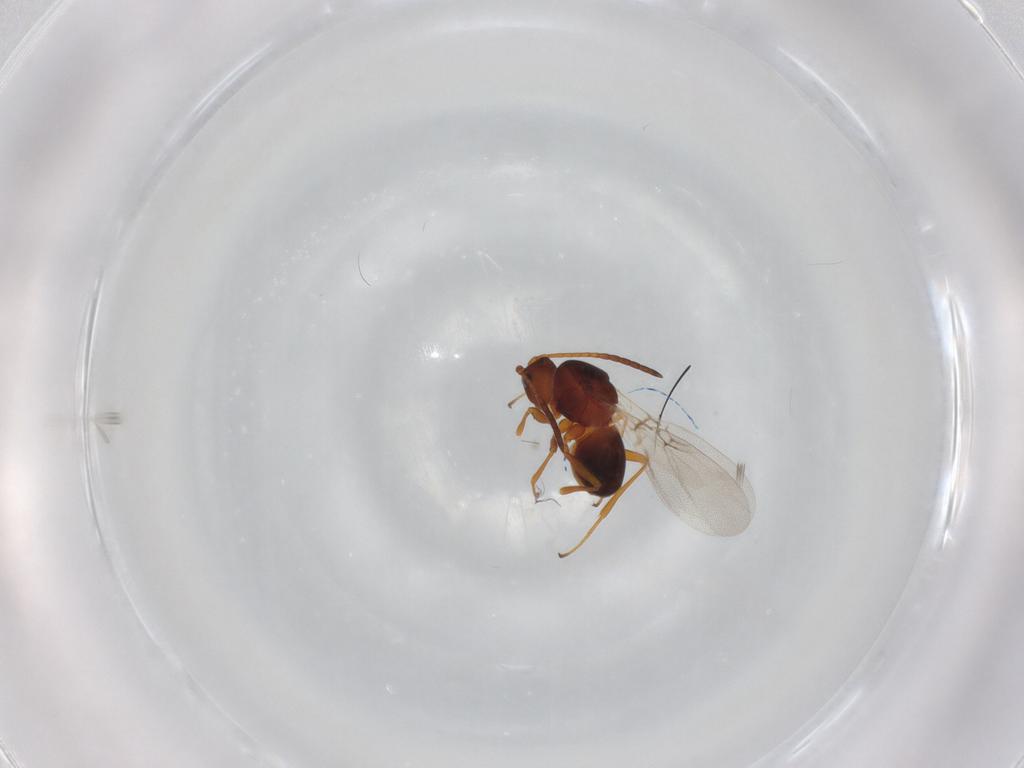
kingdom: Animalia
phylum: Arthropoda
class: Insecta
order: Hymenoptera
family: Figitidae
